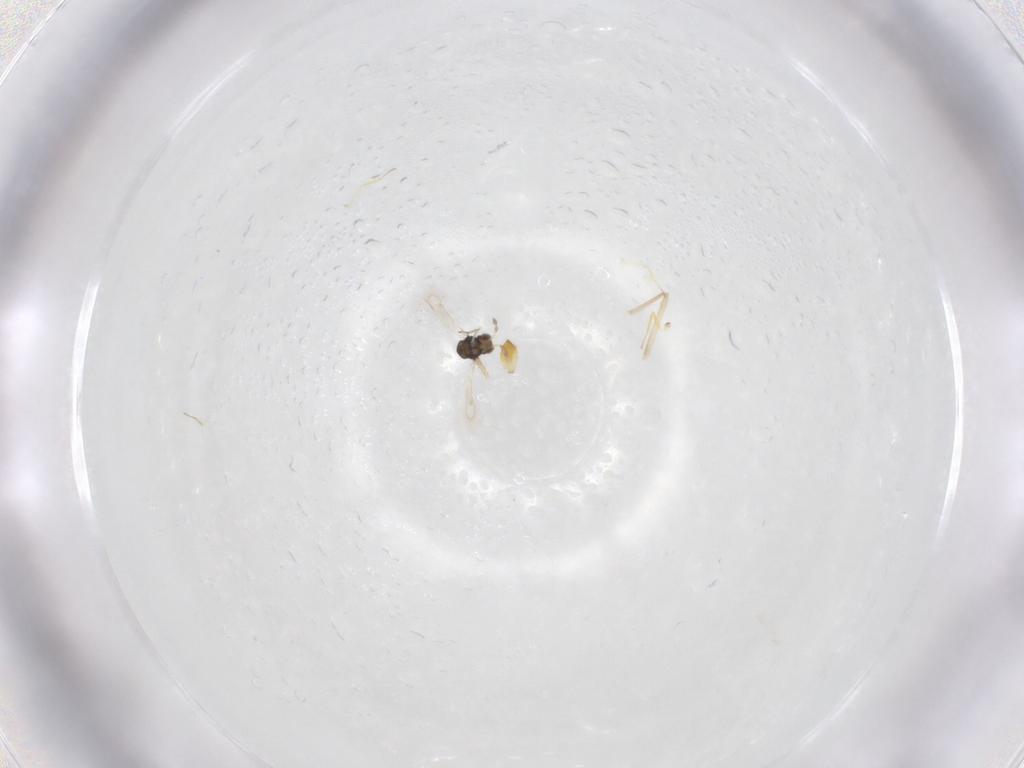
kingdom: Animalia
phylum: Arthropoda
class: Insecta
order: Hymenoptera
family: Eulophidae
